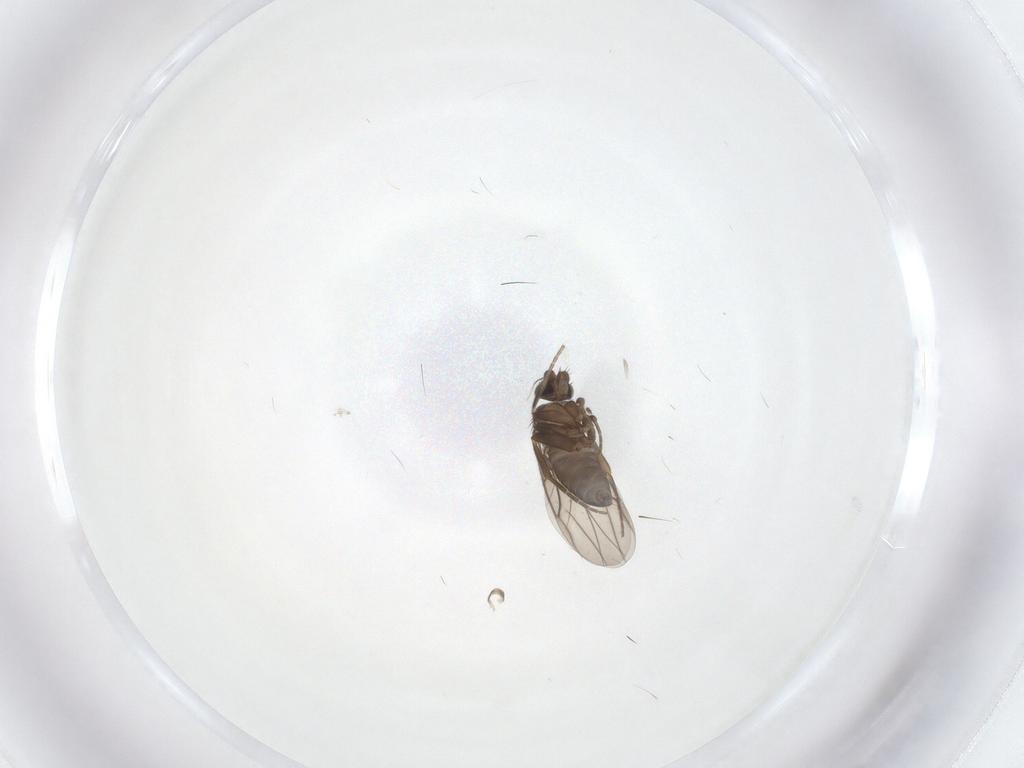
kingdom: Animalia
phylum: Arthropoda
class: Insecta
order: Diptera
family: Phoridae
